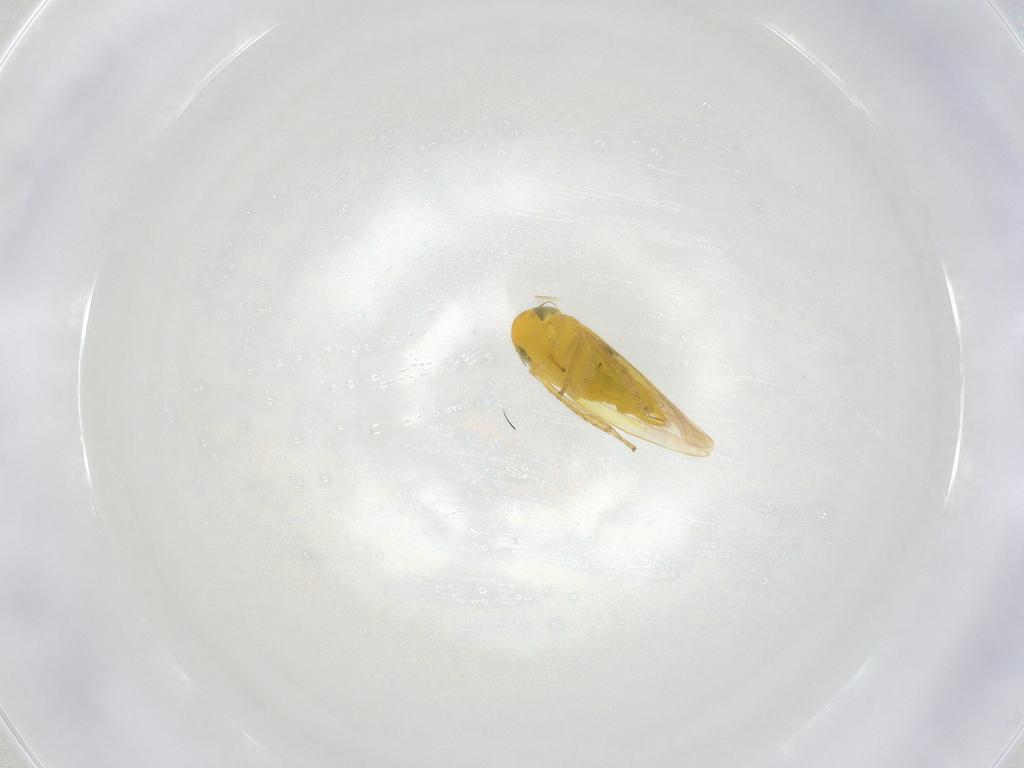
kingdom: Animalia
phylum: Arthropoda
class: Insecta
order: Hemiptera
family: Cicadellidae
